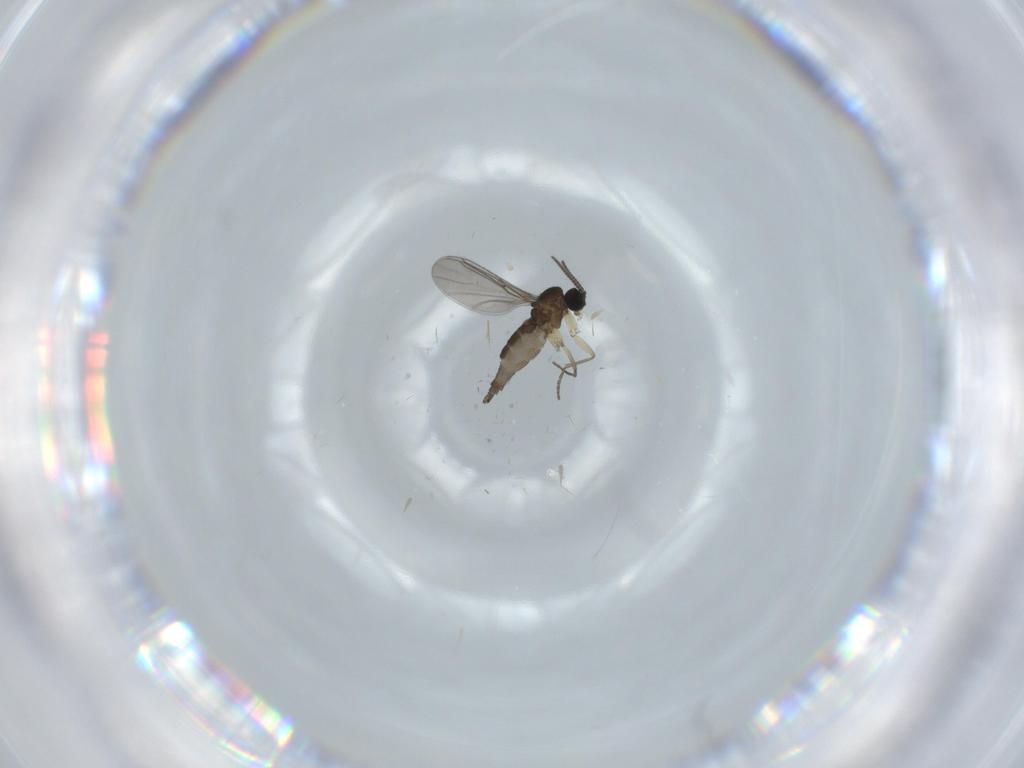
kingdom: Animalia
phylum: Arthropoda
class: Insecta
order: Diptera
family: Sciaridae
